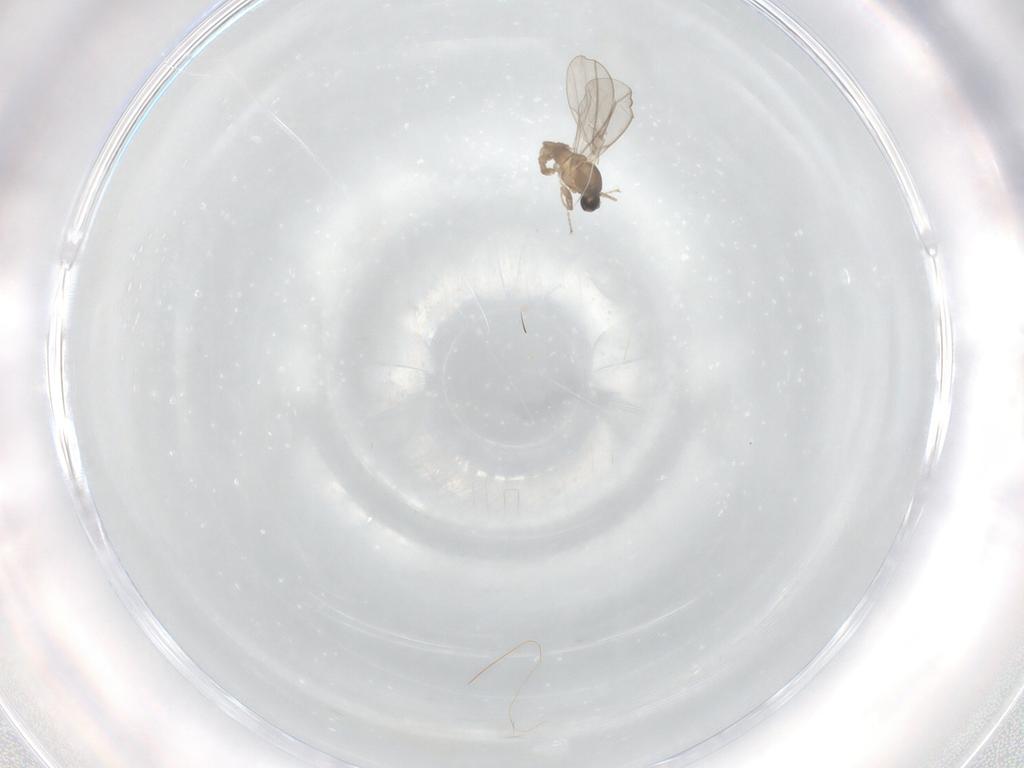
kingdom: Animalia
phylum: Arthropoda
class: Insecta
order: Diptera
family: Cecidomyiidae
